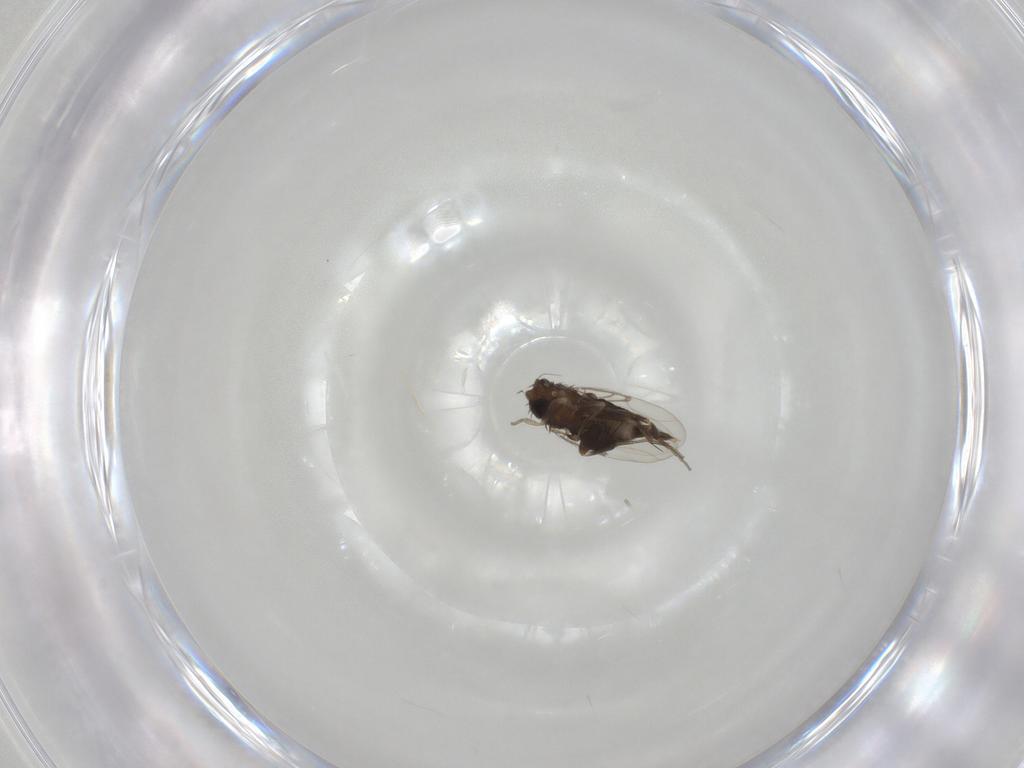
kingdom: Animalia
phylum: Arthropoda
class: Insecta
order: Diptera
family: Phoridae
